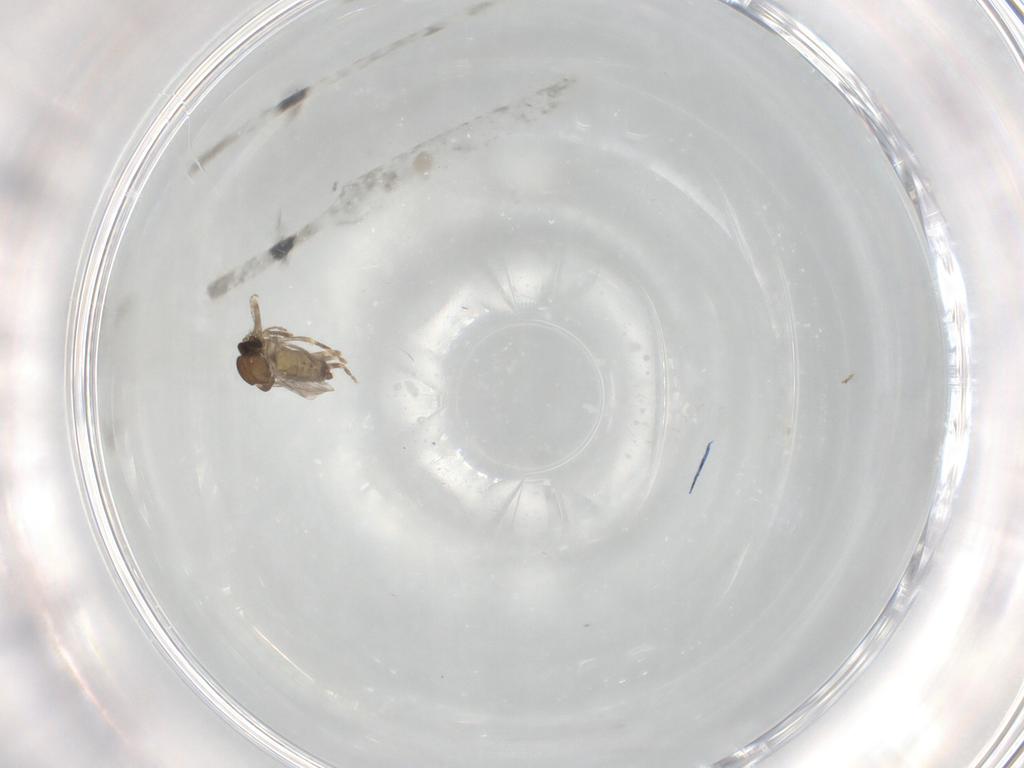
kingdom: Animalia
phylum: Arthropoda
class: Insecta
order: Diptera
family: Ceratopogonidae
